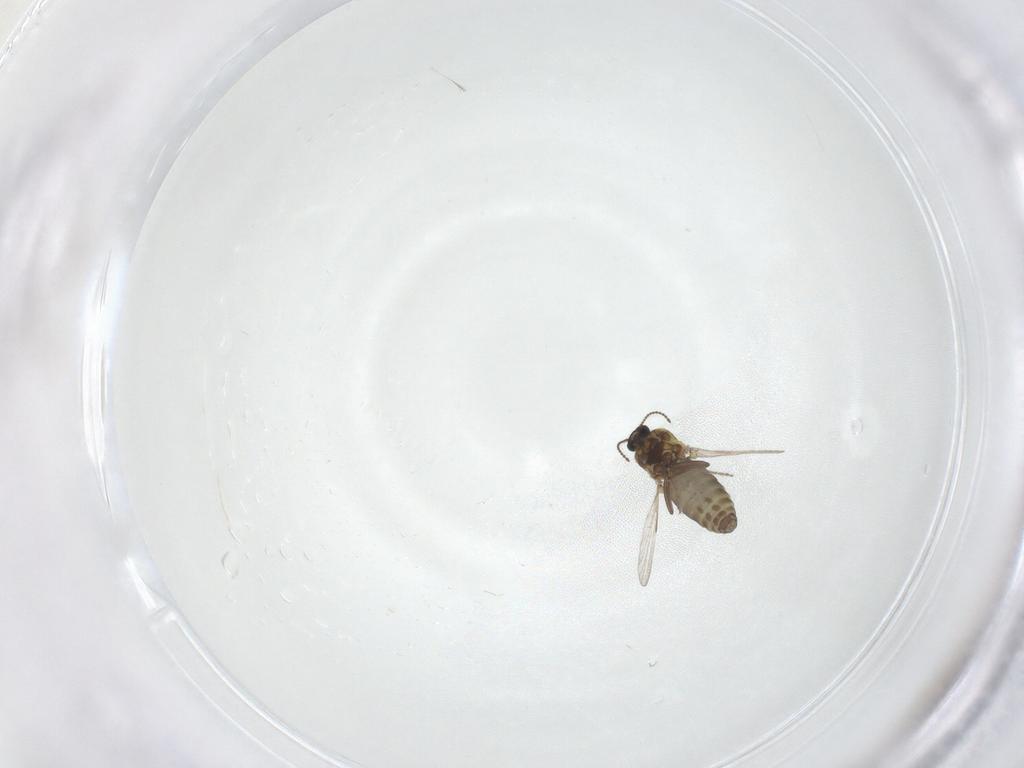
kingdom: Animalia
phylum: Arthropoda
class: Insecta
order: Diptera
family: Ceratopogonidae
